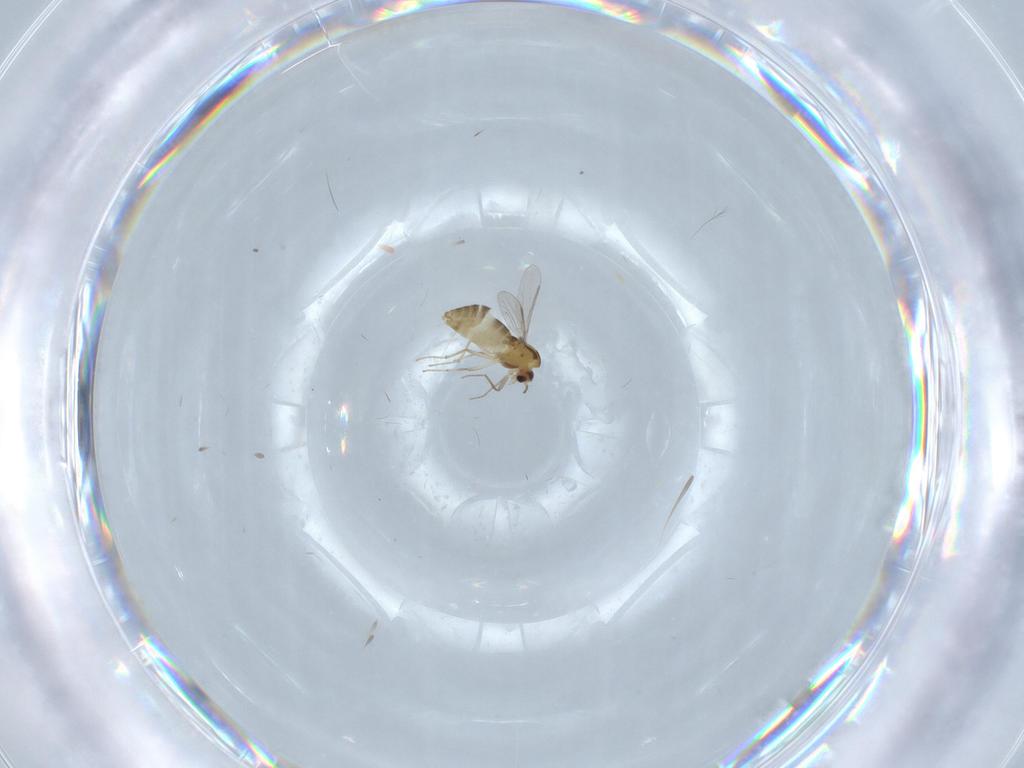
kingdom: Animalia
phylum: Arthropoda
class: Insecta
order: Diptera
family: Chironomidae
